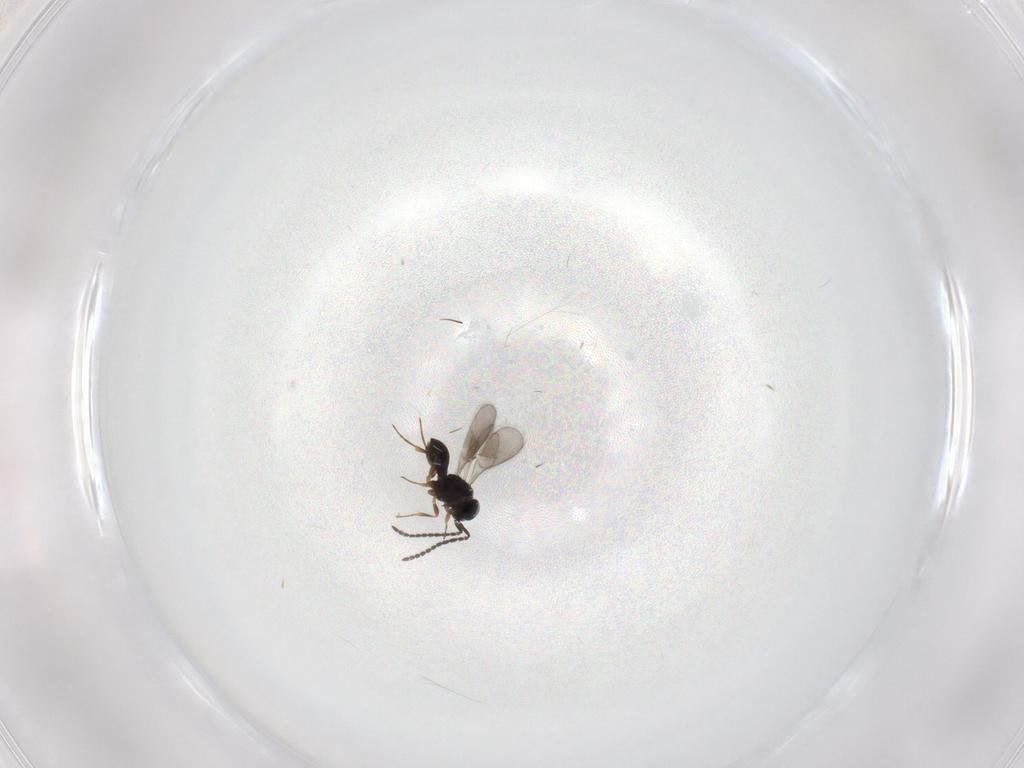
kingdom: Animalia
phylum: Arthropoda
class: Insecta
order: Hymenoptera
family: Scelionidae
